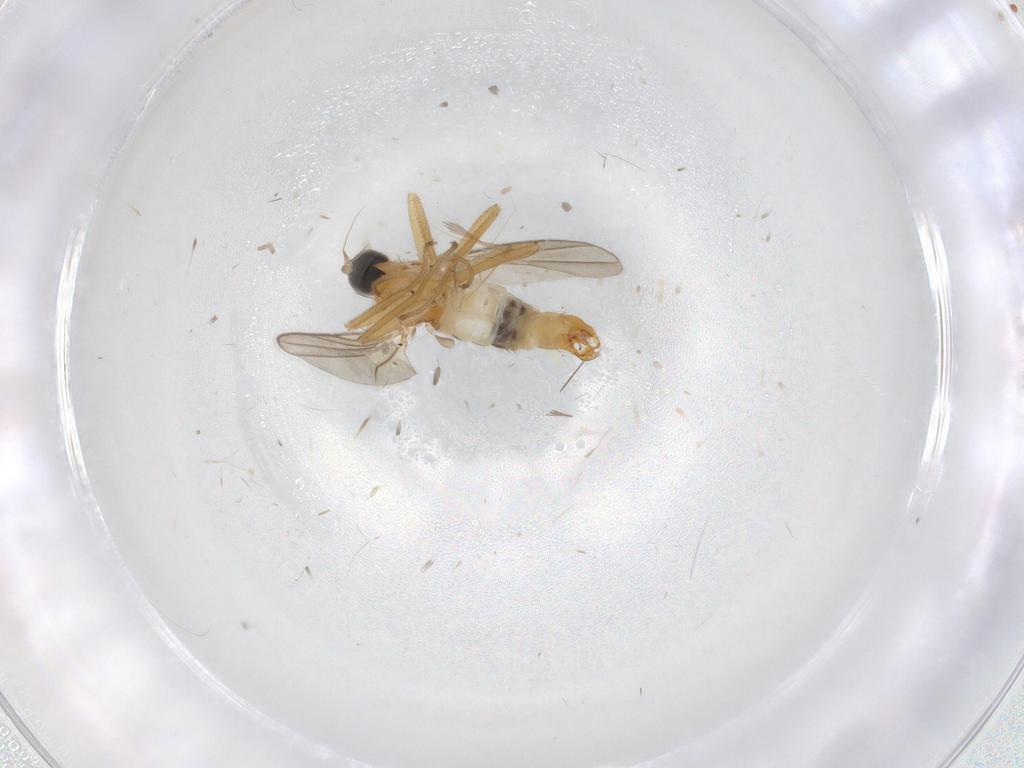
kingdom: Animalia
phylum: Arthropoda
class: Insecta
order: Diptera
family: Hybotidae
